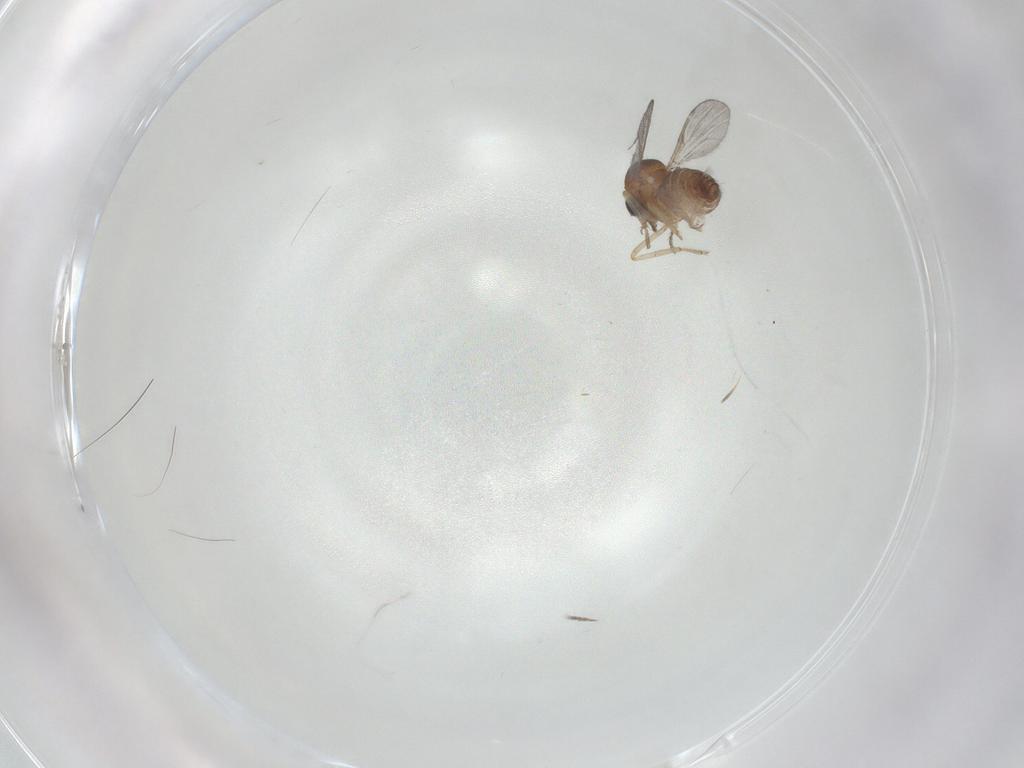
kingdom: Animalia
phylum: Arthropoda
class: Insecta
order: Diptera
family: Ceratopogonidae
